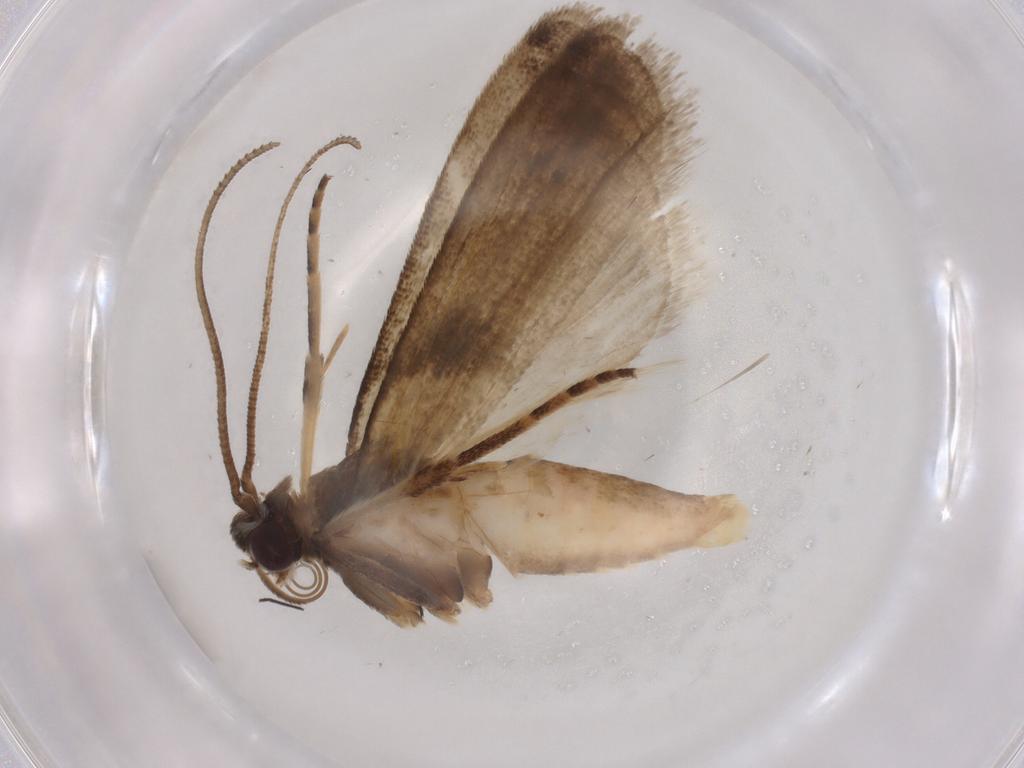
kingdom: Animalia
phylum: Arthropoda
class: Insecta
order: Lepidoptera
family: Noctuidae
